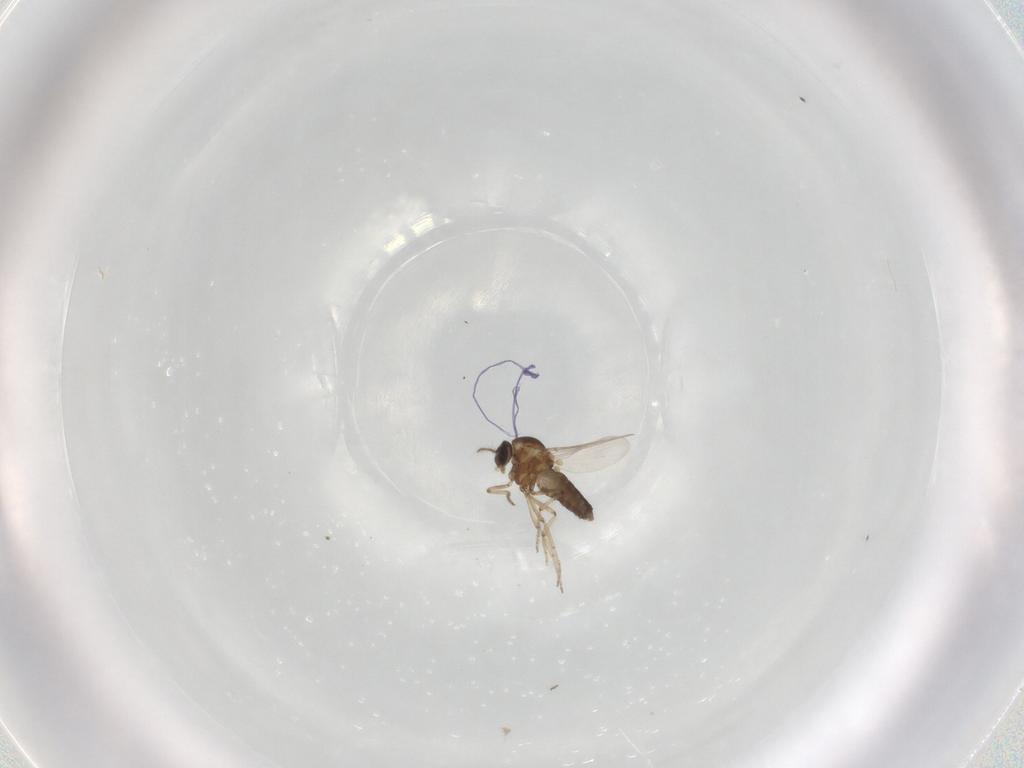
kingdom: Animalia
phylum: Arthropoda
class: Insecta
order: Diptera
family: Ceratopogonidae
